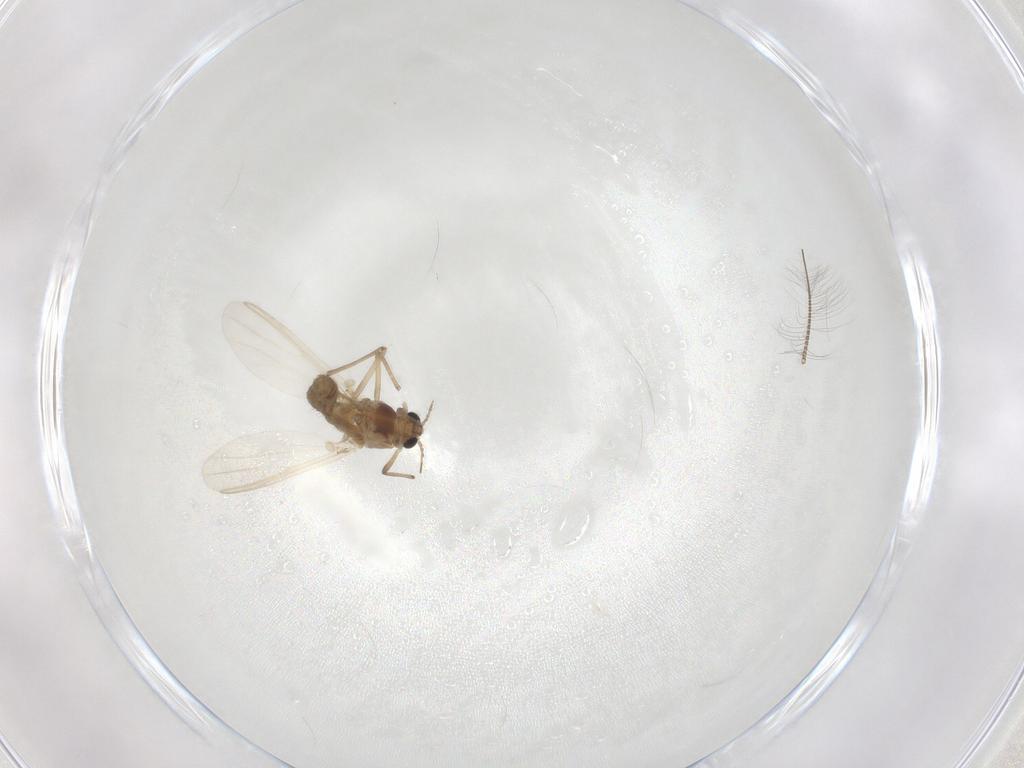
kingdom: Animalia
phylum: Arthropoda
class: Insecta
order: Diptera
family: Chironomidae
